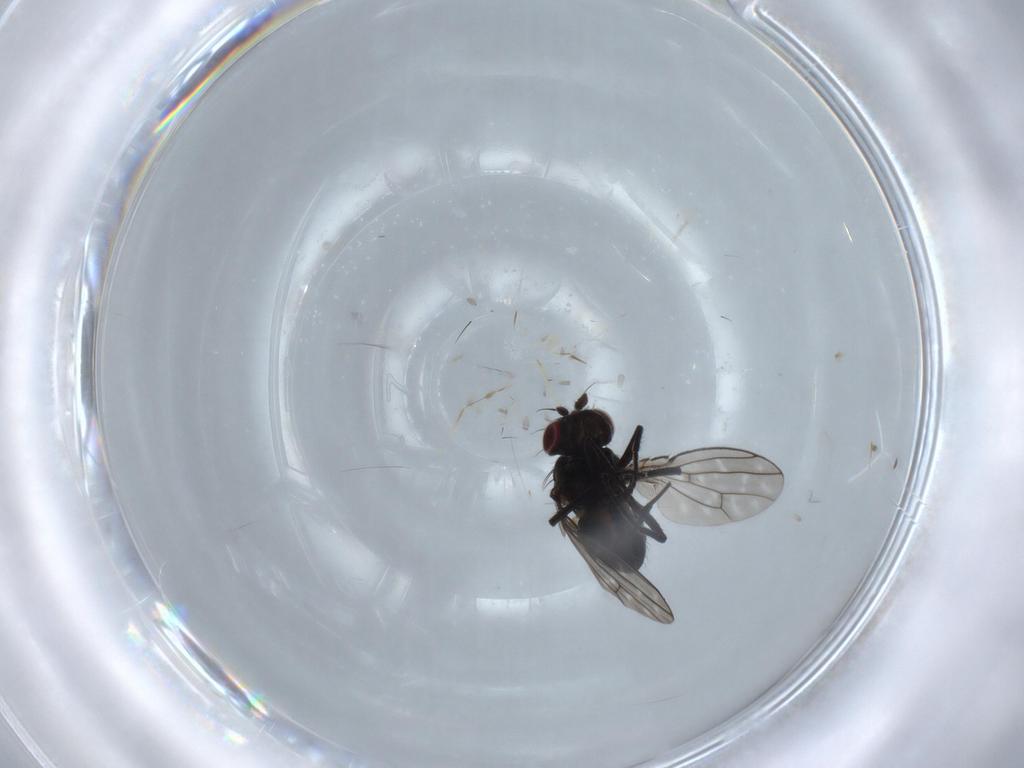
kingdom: Animalia
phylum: Arthropoda
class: Insecta
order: Diptera
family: Ephydridae
